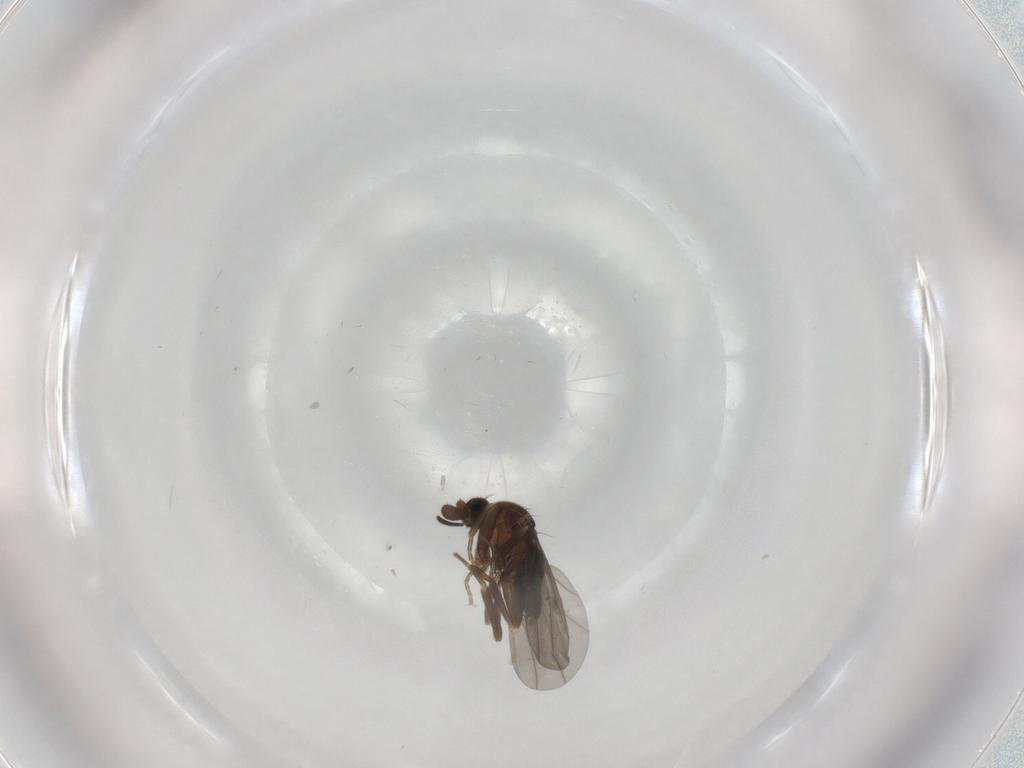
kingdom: Animalia
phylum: Arthropoda
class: Insecta
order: Diptera
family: Phoridae
